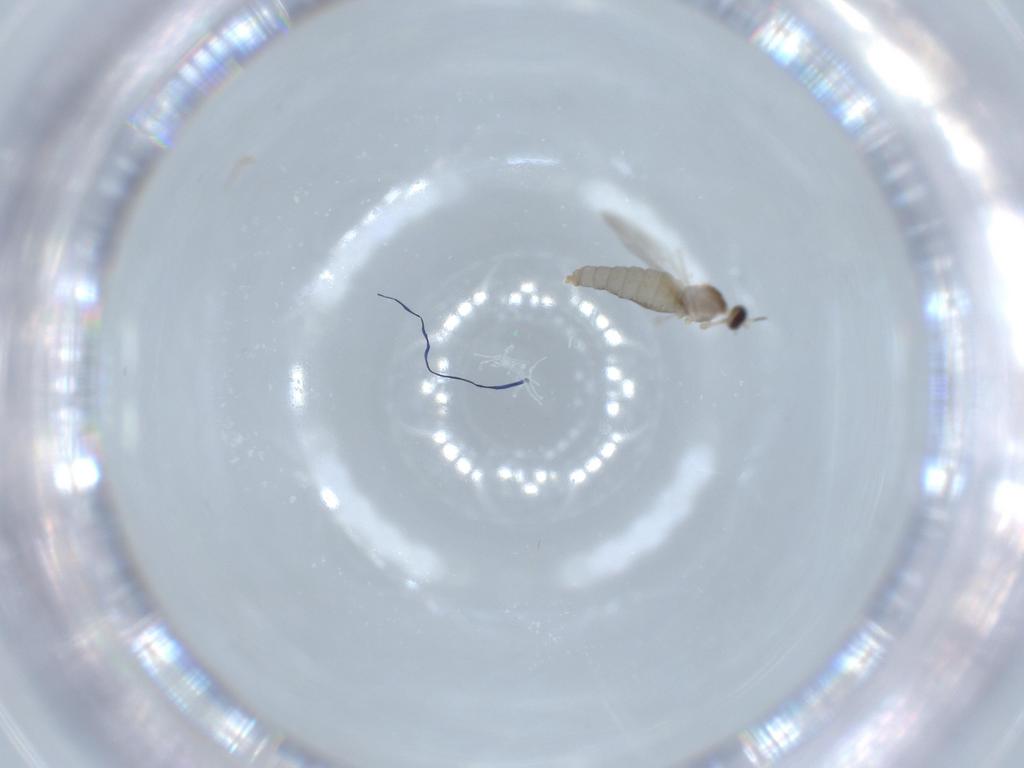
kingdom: Animalia
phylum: Arthropoda
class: Insecta
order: Diptera
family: Cecidomyiidae
